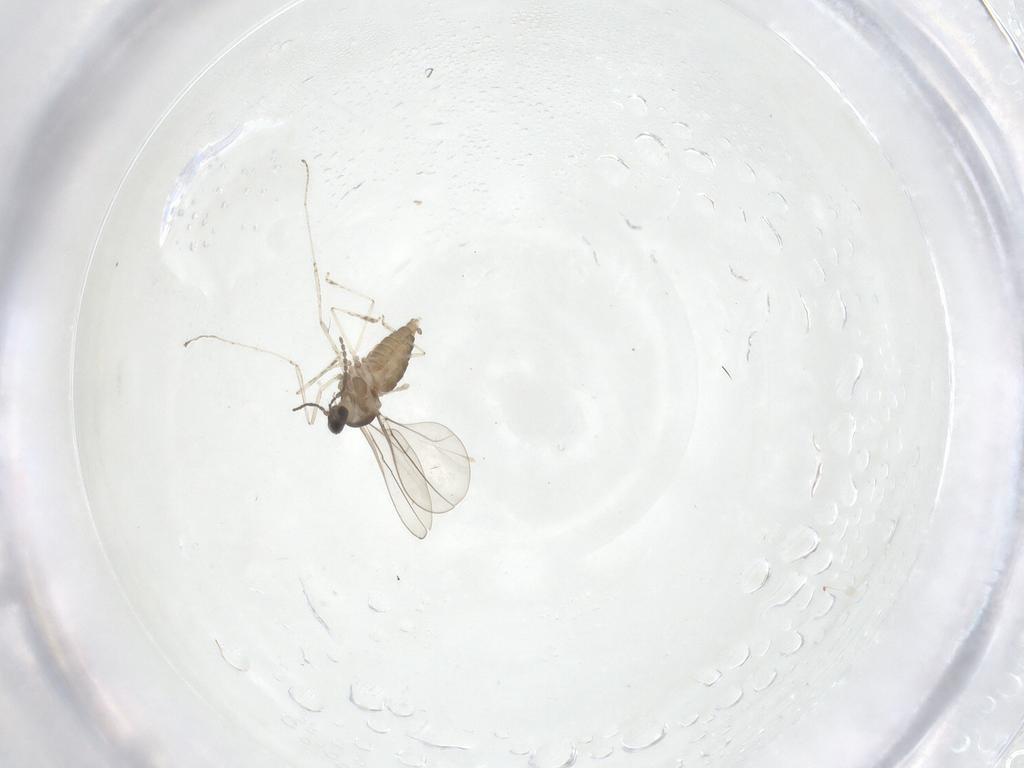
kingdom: Animalia
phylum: Arthropoda
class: Insecta
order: Diptera
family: Cecidomyiidae
